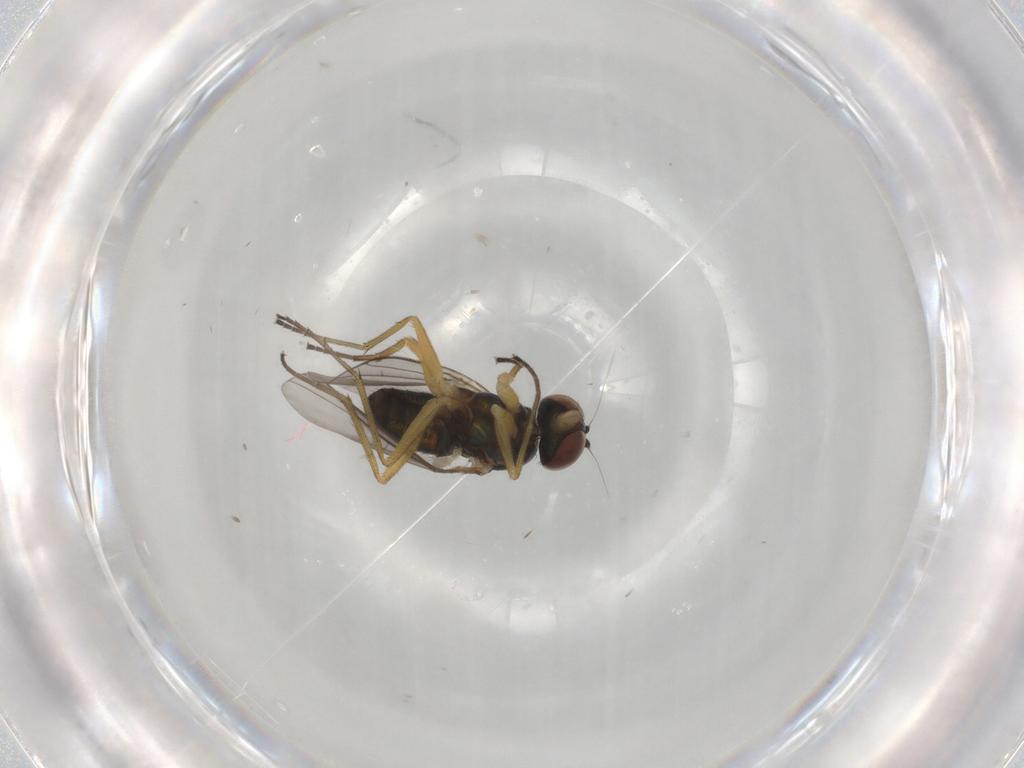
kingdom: Animalia
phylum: Arthropoda
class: Insecta
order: Diptera
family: Dolichopodidae
